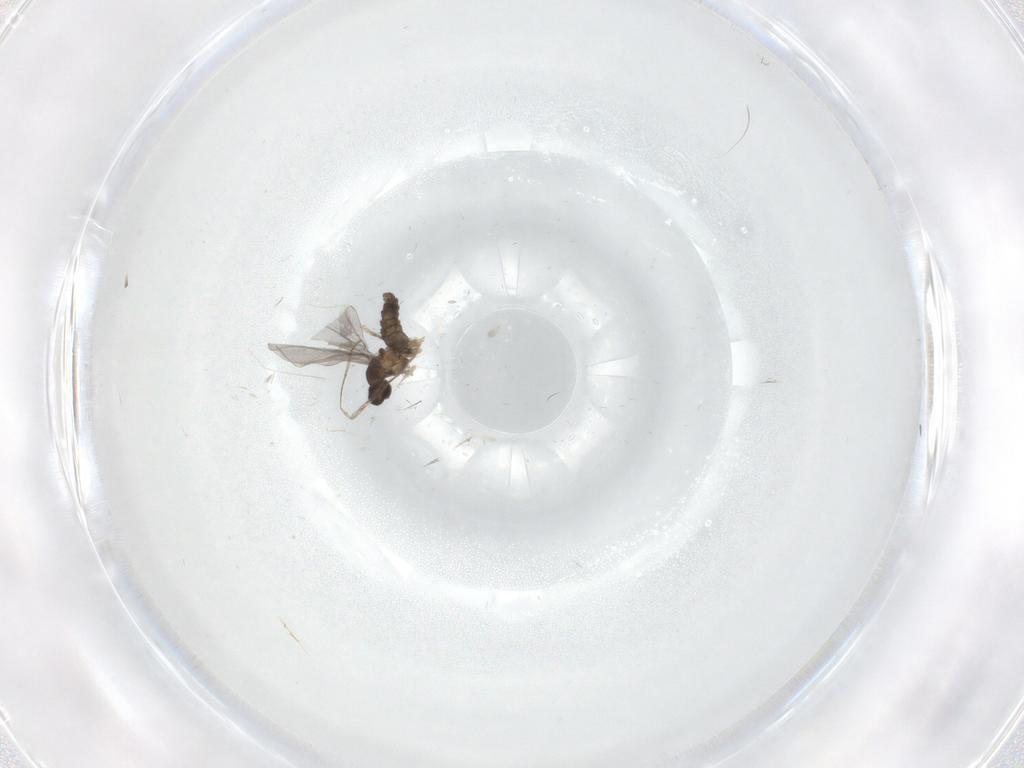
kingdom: Animalia
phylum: Arthropoda
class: Insecta
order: Diptera
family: Cecidomyiidae
